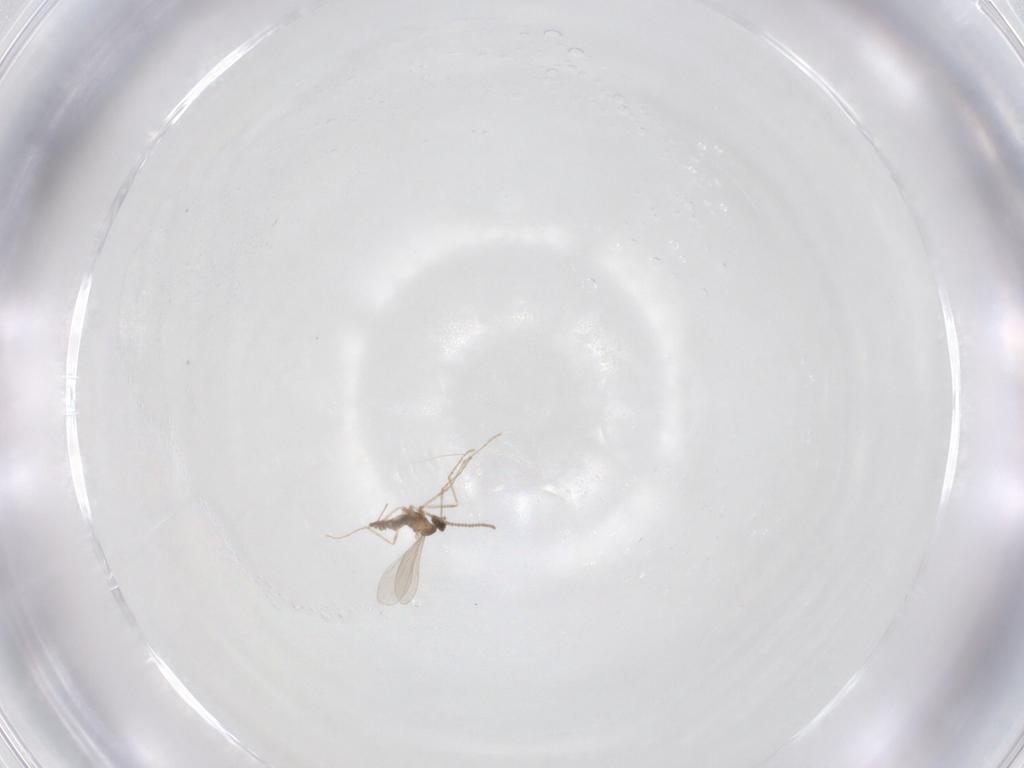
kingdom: Animalia
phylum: Arthropoda
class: Insecta
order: Diptera
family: Cecidomyiidae
